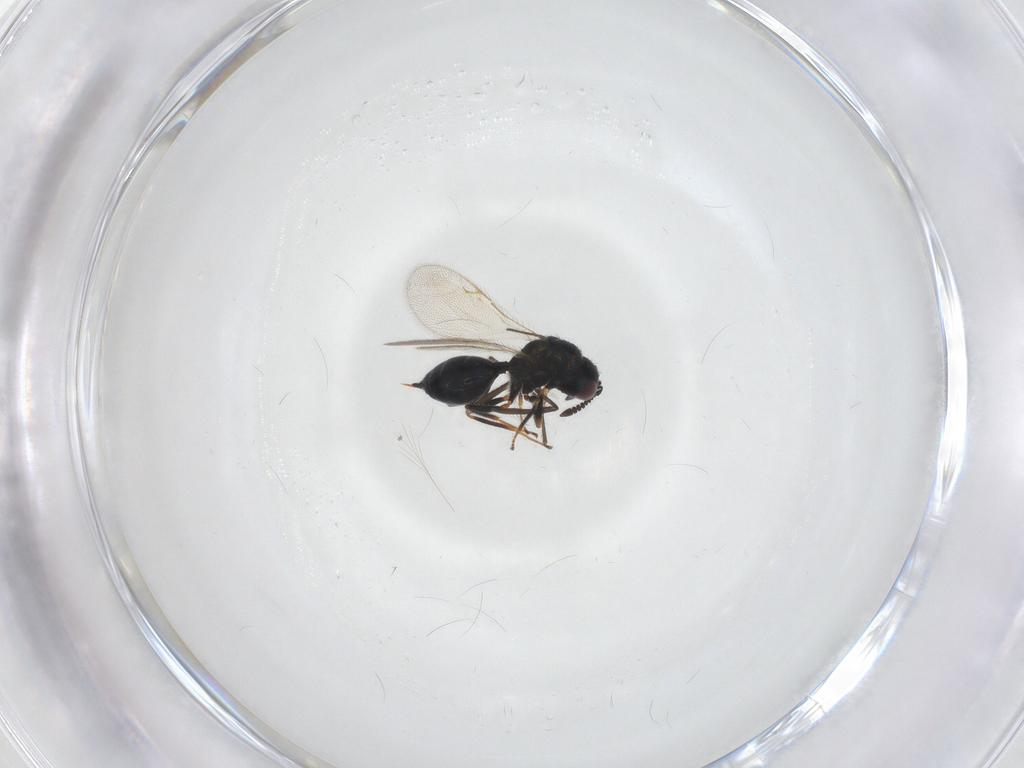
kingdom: Animalia
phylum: Arthropoda
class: Insecta
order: Hymenoptera
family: Chalcidoidea_incertae_sedis
